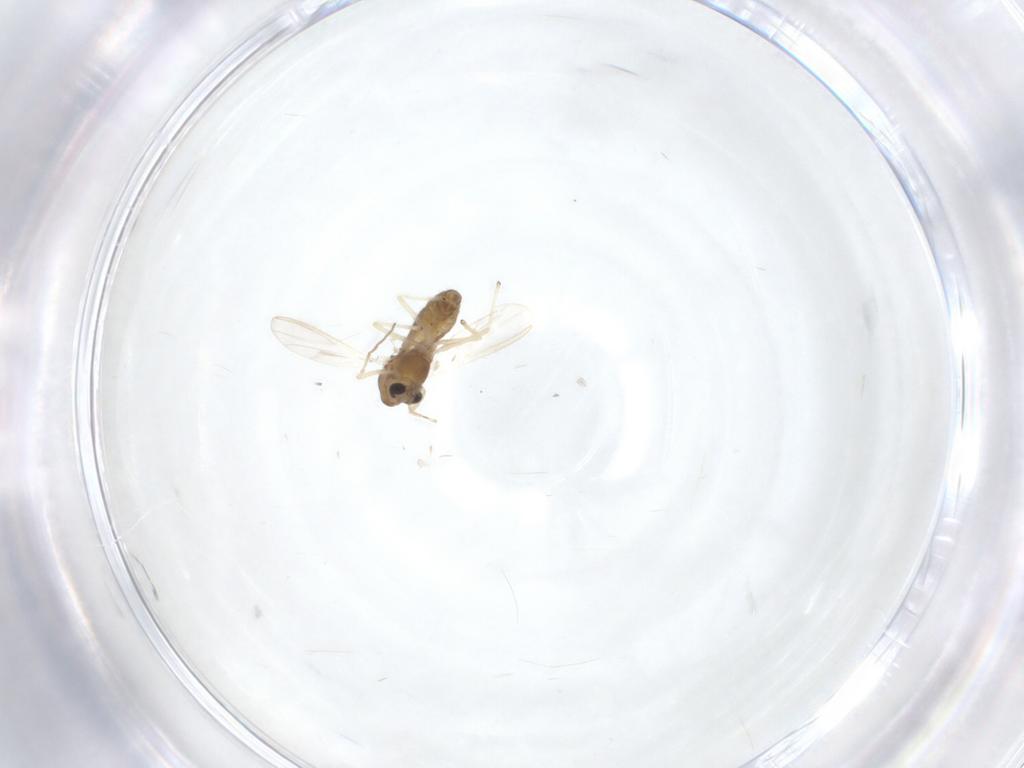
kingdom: Animalia
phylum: Arthropoda
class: Insecta
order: Diptera
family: Chironomidae
